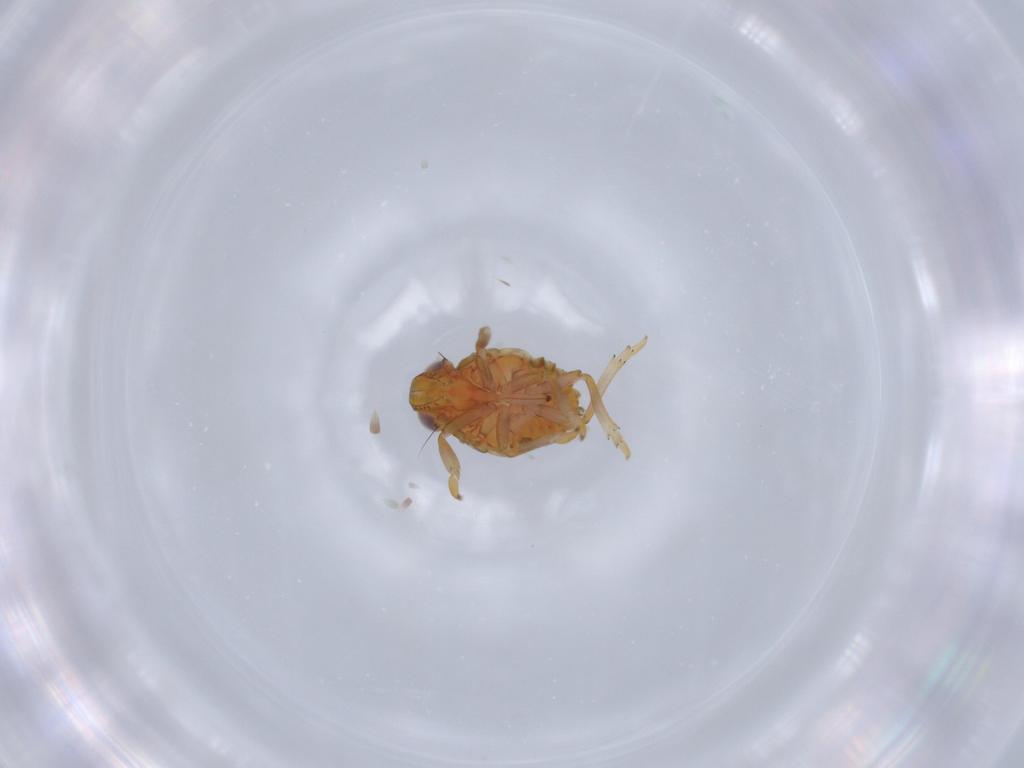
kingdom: Animalia
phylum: Arthropoda
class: Insecta
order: Hemiptera
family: Issidae
